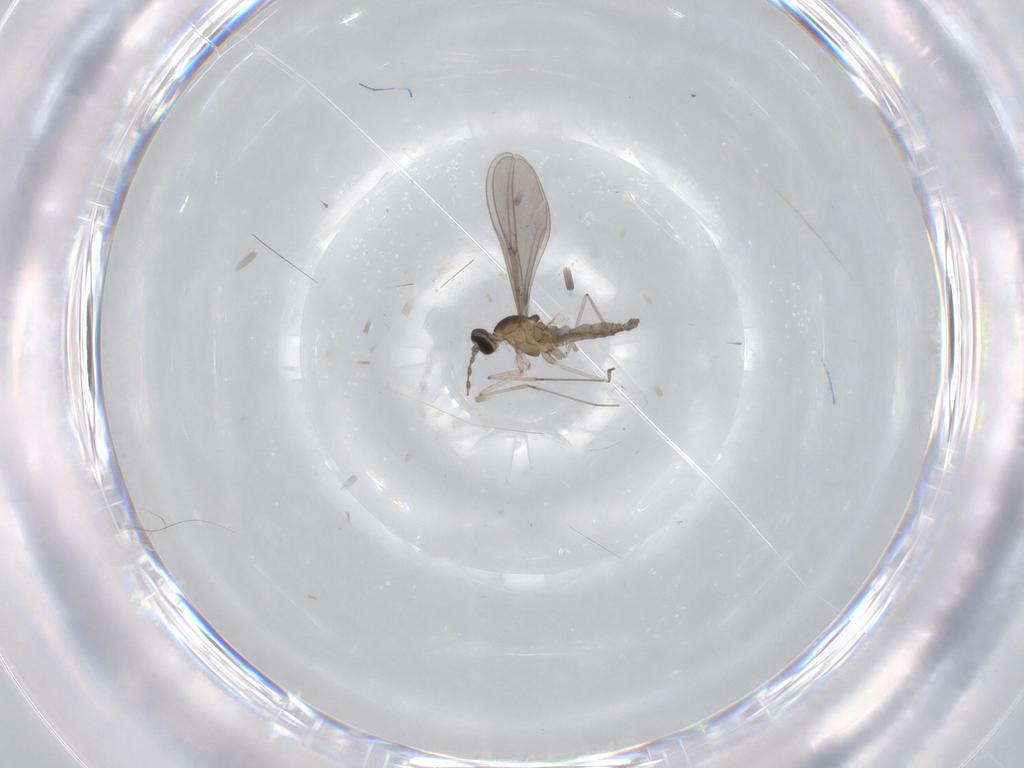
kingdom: Animalia
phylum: Arthropoda
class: Insecta
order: Diptera
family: Cecidomyiidae
